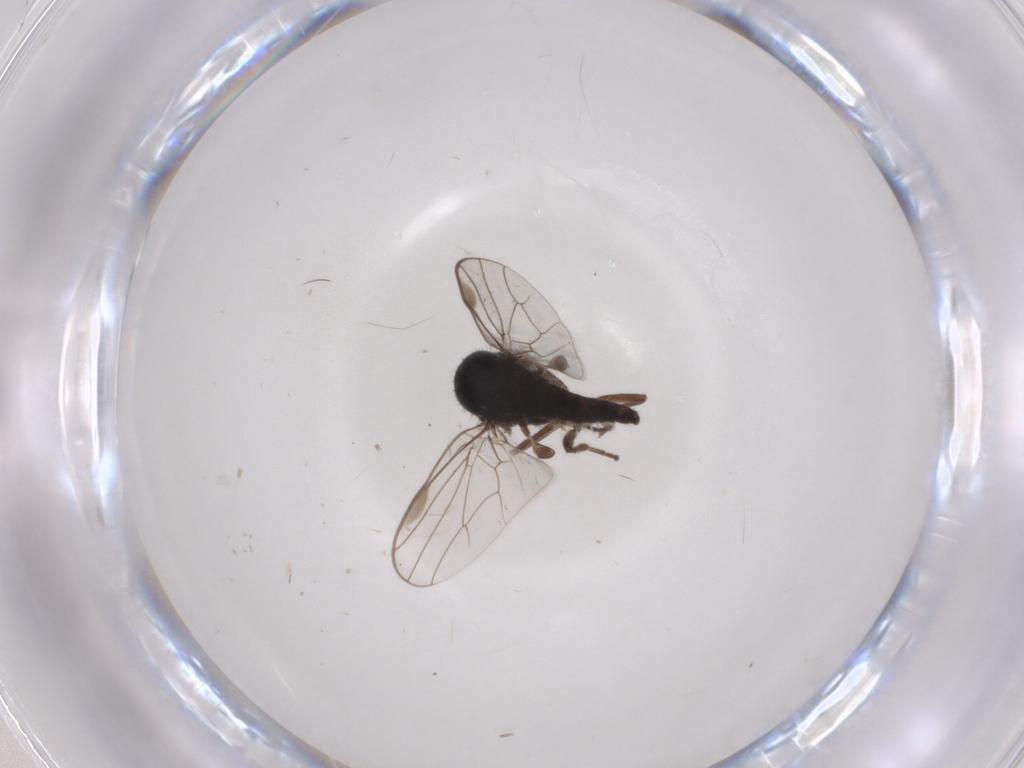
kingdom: Animalia
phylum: Arthropoda
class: Insecta
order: Diptera
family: Hybotidae
